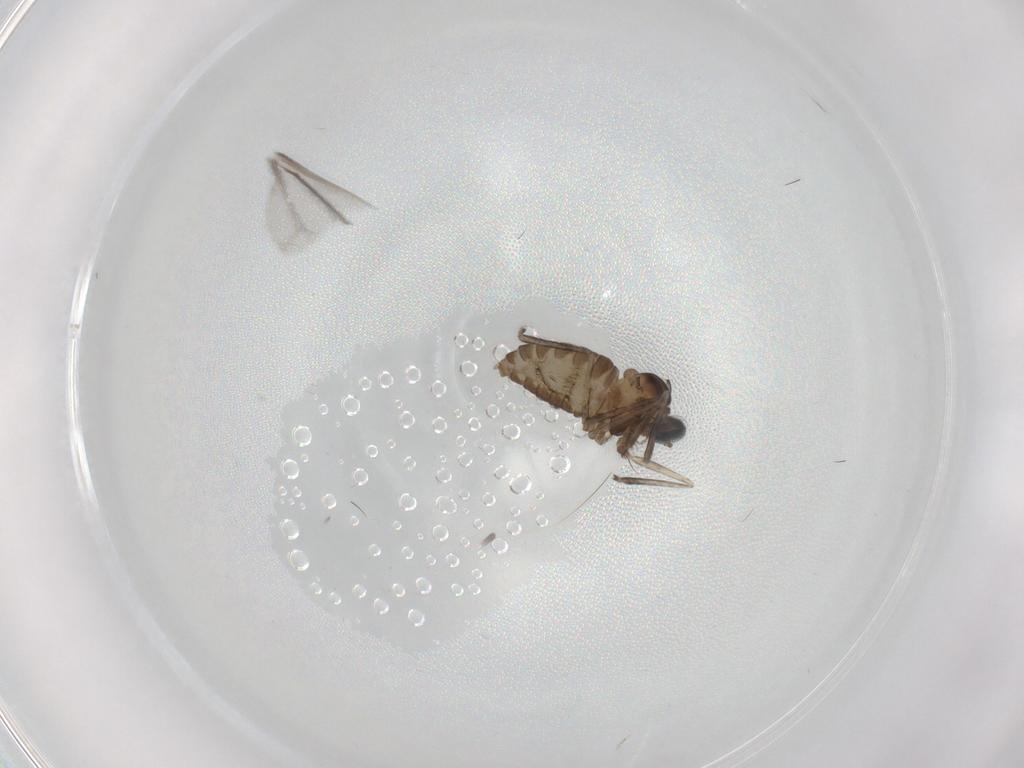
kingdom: Animalia
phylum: Arthropoda
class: Insecta
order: Diptera
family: Cecidomyiidae
